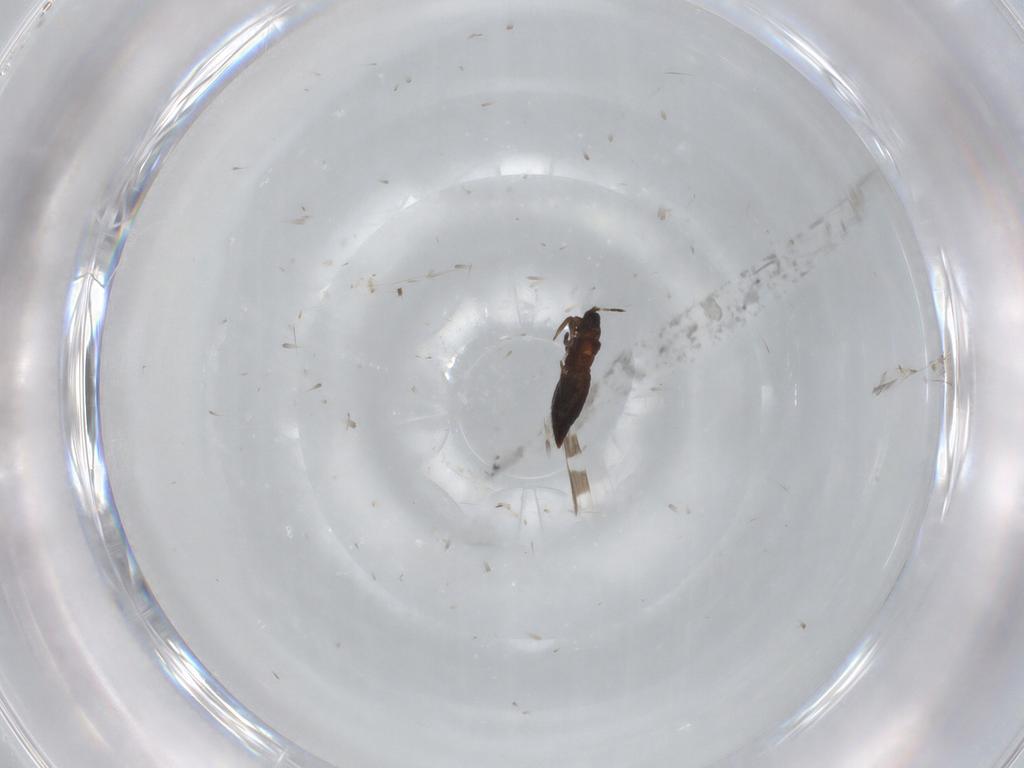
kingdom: Animalia
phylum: Arthropoda
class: Insecta
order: Thysanoptera
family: Aeolothripidae
